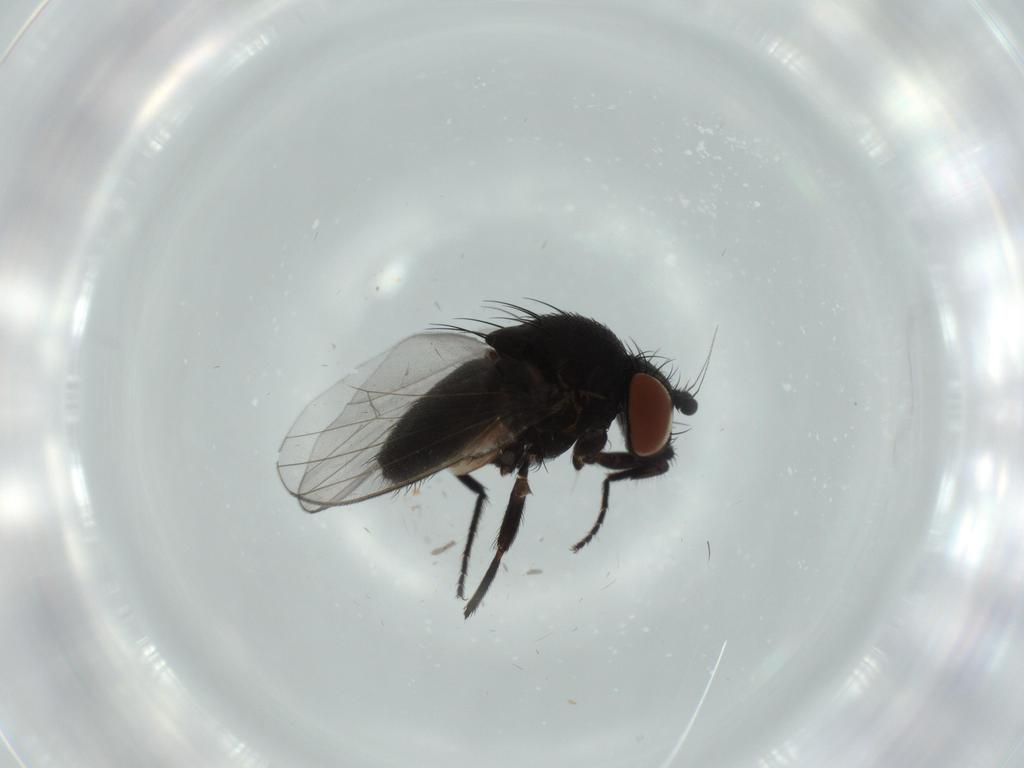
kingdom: Animalia
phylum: Arthropoda
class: Insecta
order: Diptera
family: Milichiidae
